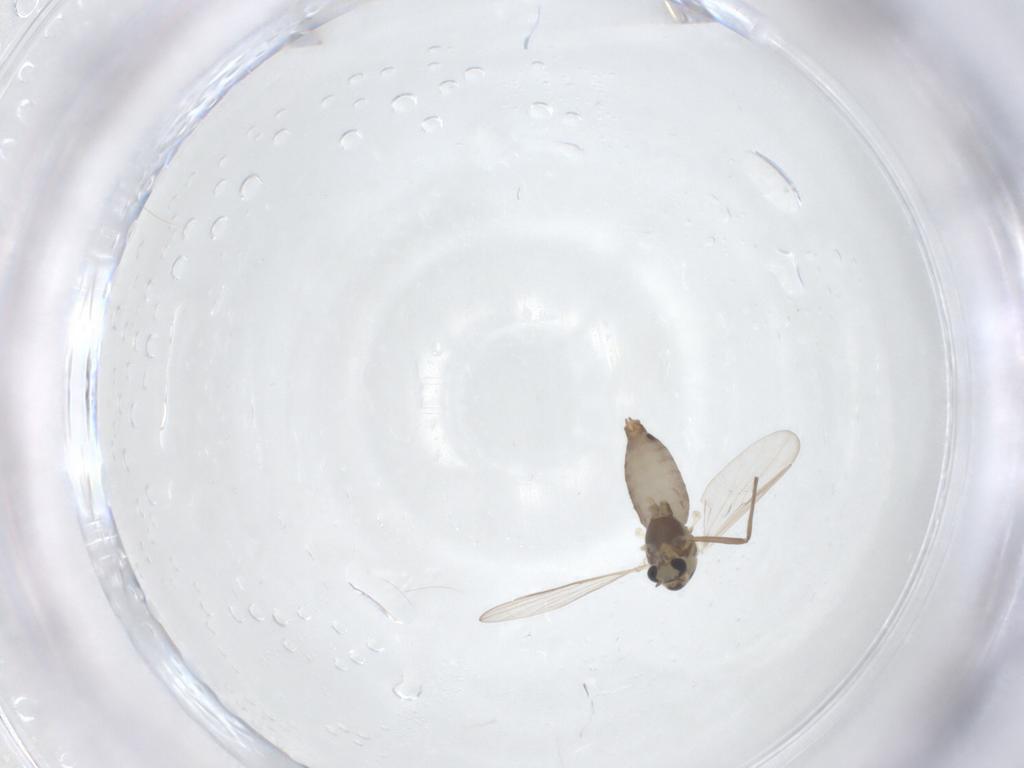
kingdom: Animalia
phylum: Arthropoda
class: Insecta
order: Diptera
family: Chironomidae
